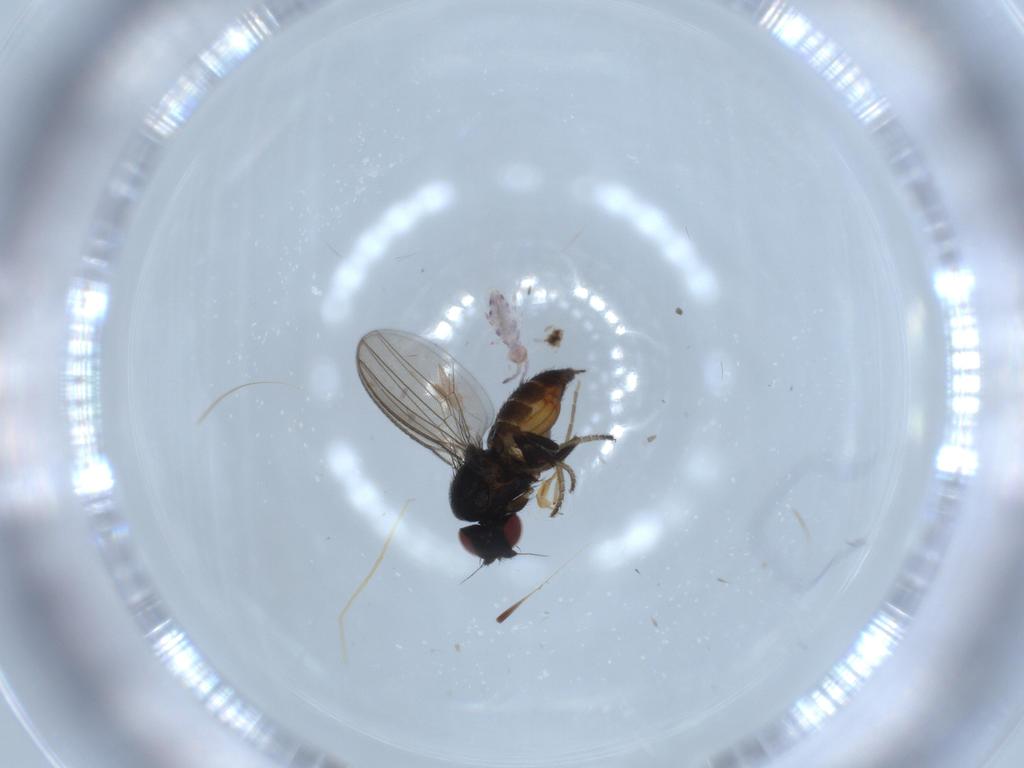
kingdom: Animalia
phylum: Arthropoda
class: Insecta
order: Diptera
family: Milichiidae
